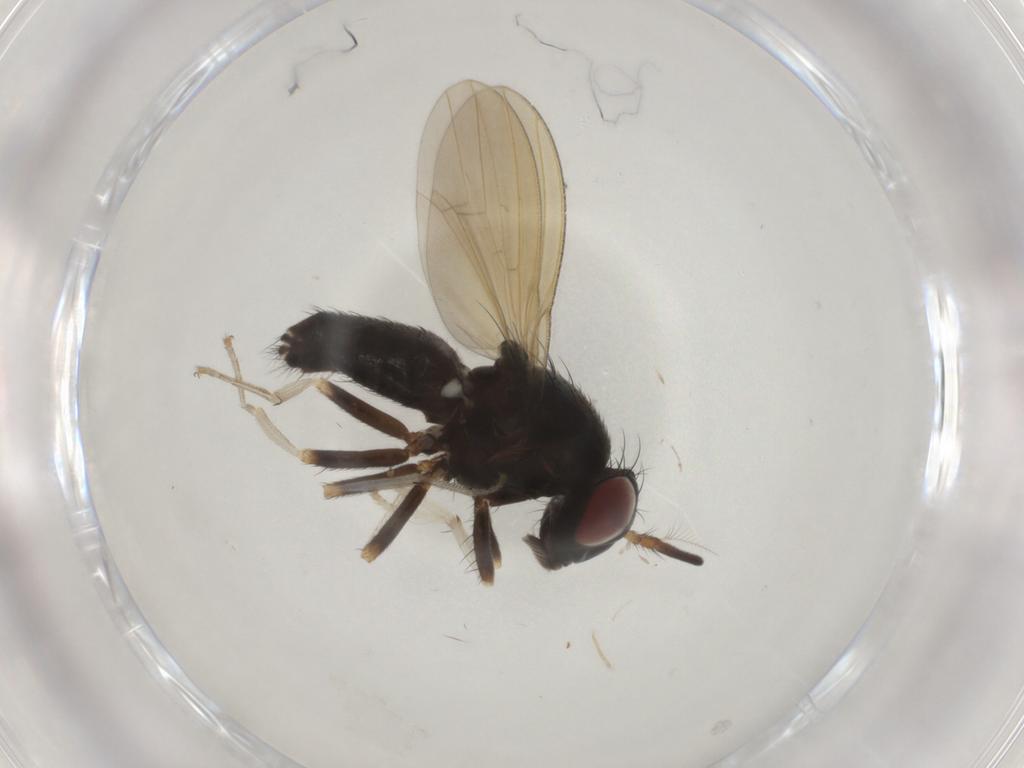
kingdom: Animalia
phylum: Arthropoda
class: Insecta
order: Diptera
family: Lauxaniidae
